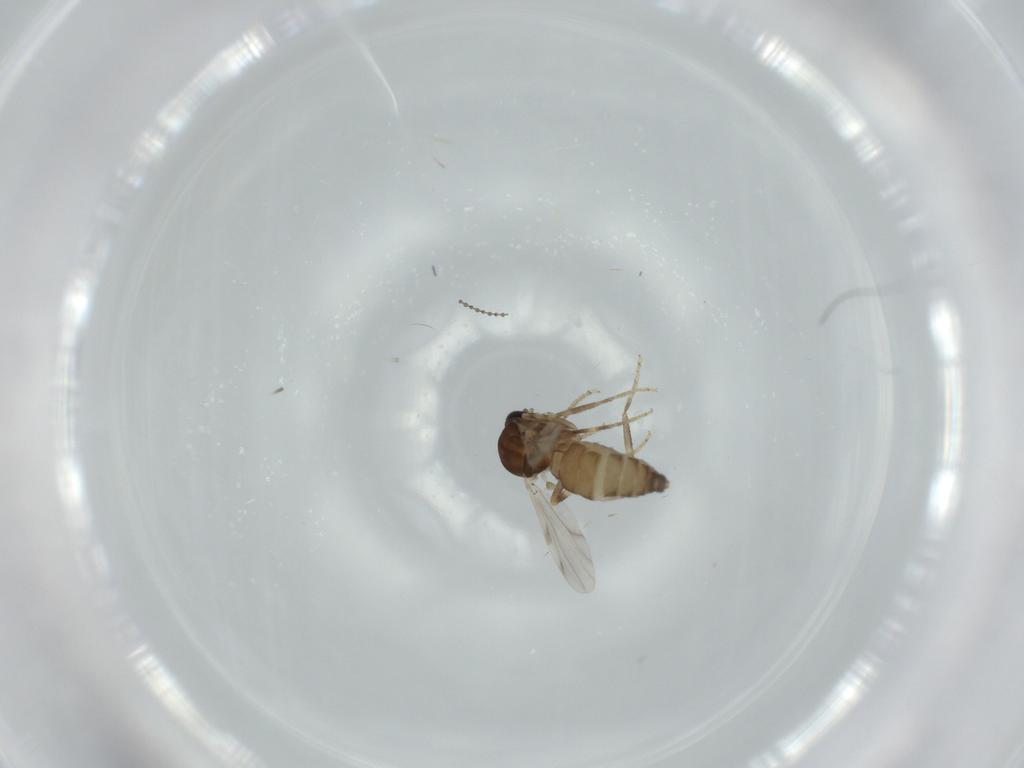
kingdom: Animalia
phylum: Arthropoda
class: Insecta
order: Diptera
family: Ceratopogonidae
